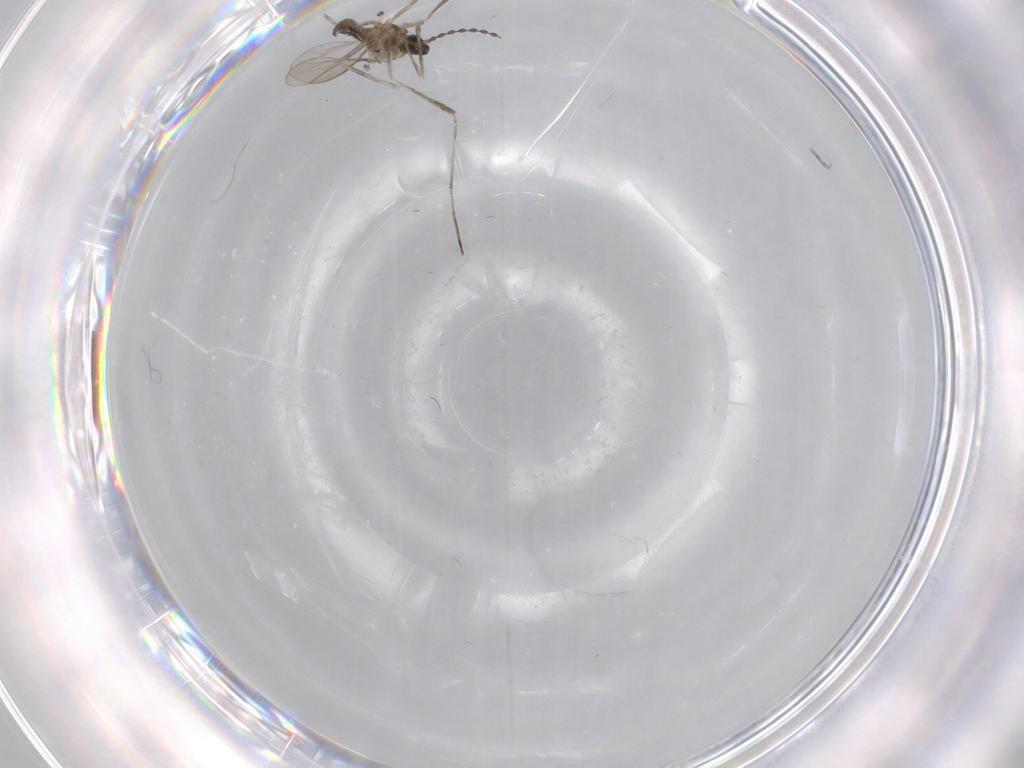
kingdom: Animalia
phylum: Arthropoda
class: Insecta
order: Diptera
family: Cecidomyiidae
